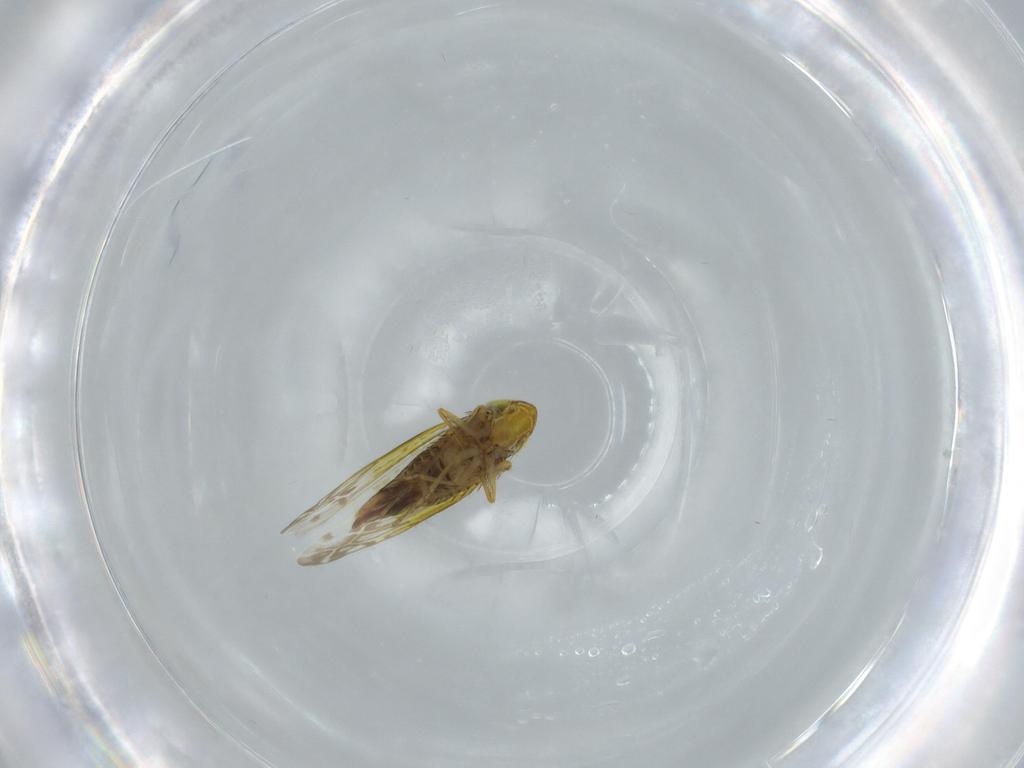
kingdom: Animalia
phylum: Arthropoda
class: Insecta
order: Hemiptera
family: Cicadellidae
